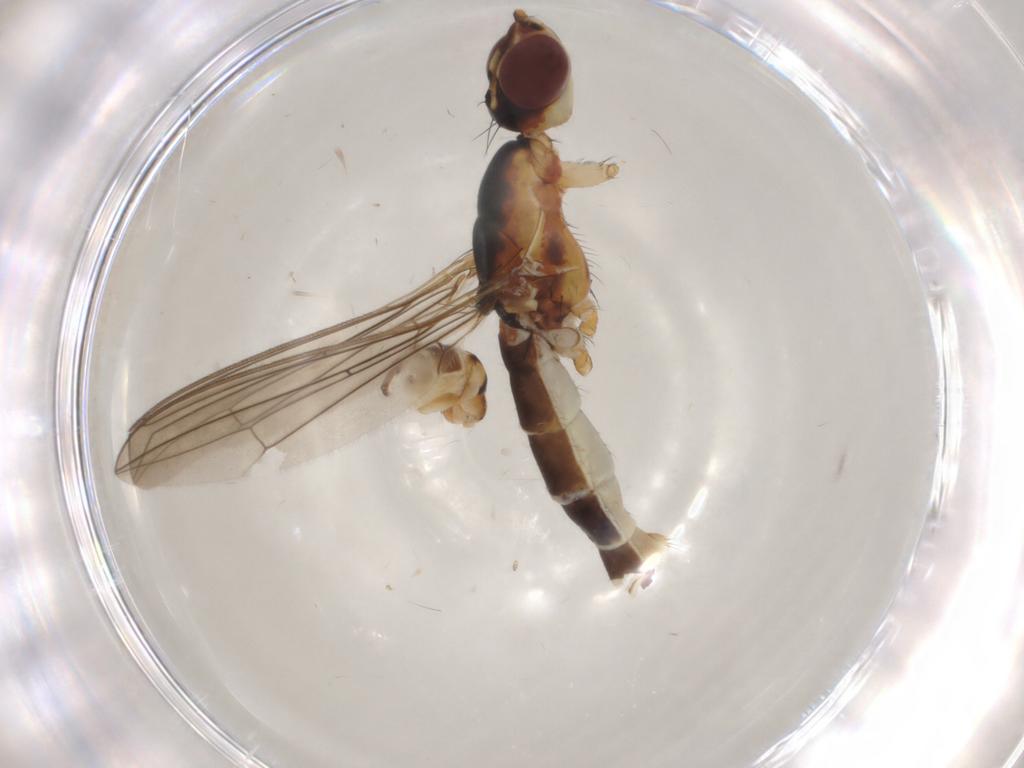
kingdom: Animalia
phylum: Arthropoda
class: Insecta
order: Diptera
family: Micropezidae
